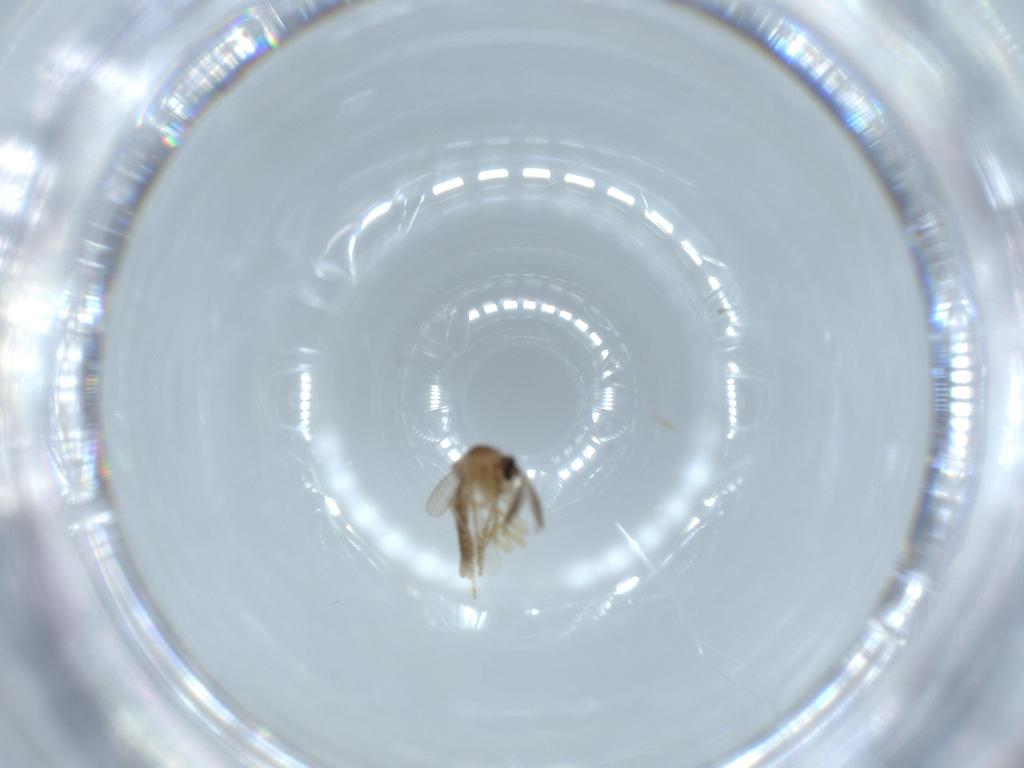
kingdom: Animalia
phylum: Arthropoda
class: Insecta
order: Diptera
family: Ceratopogonidae
